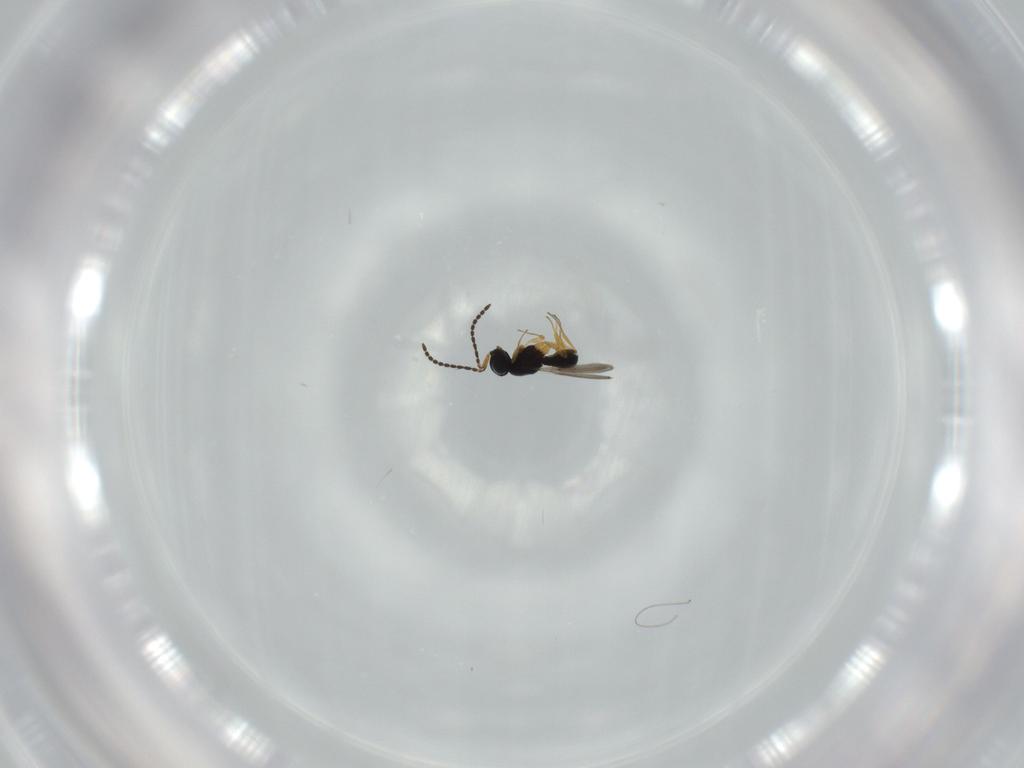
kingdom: Animalia
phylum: Arthropoda
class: Insecta
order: Hymenoptera
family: Scelionidae
